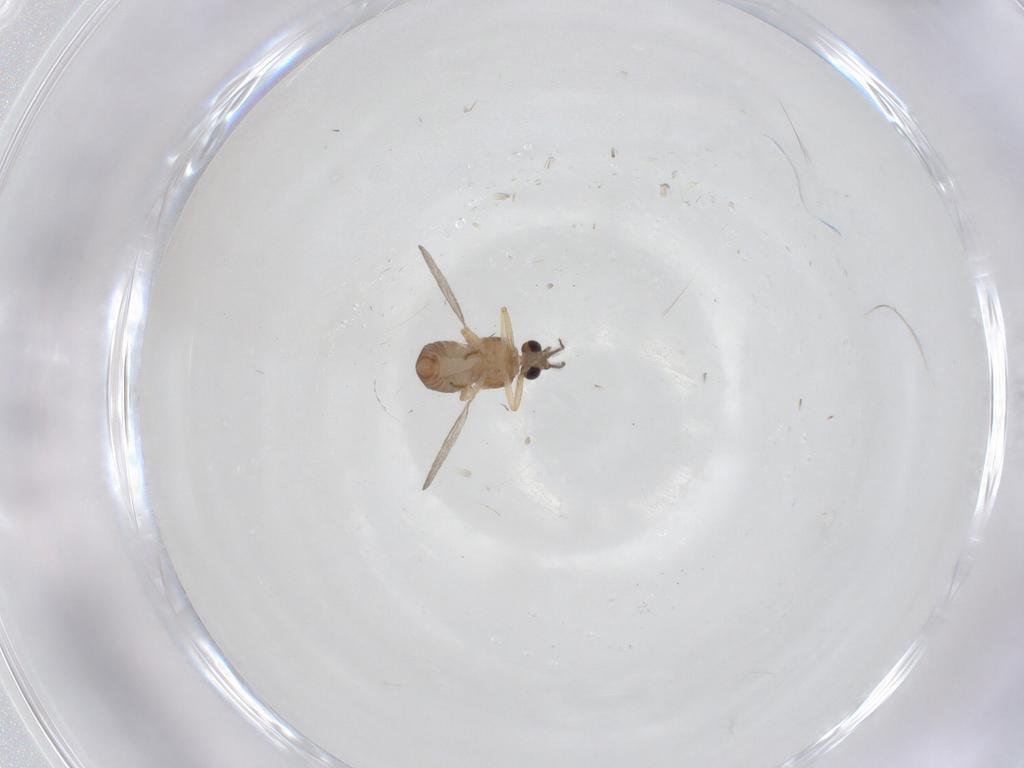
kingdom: Animalia
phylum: Arthropoda
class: Insecta
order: Diptera
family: Ceratopogonidae
